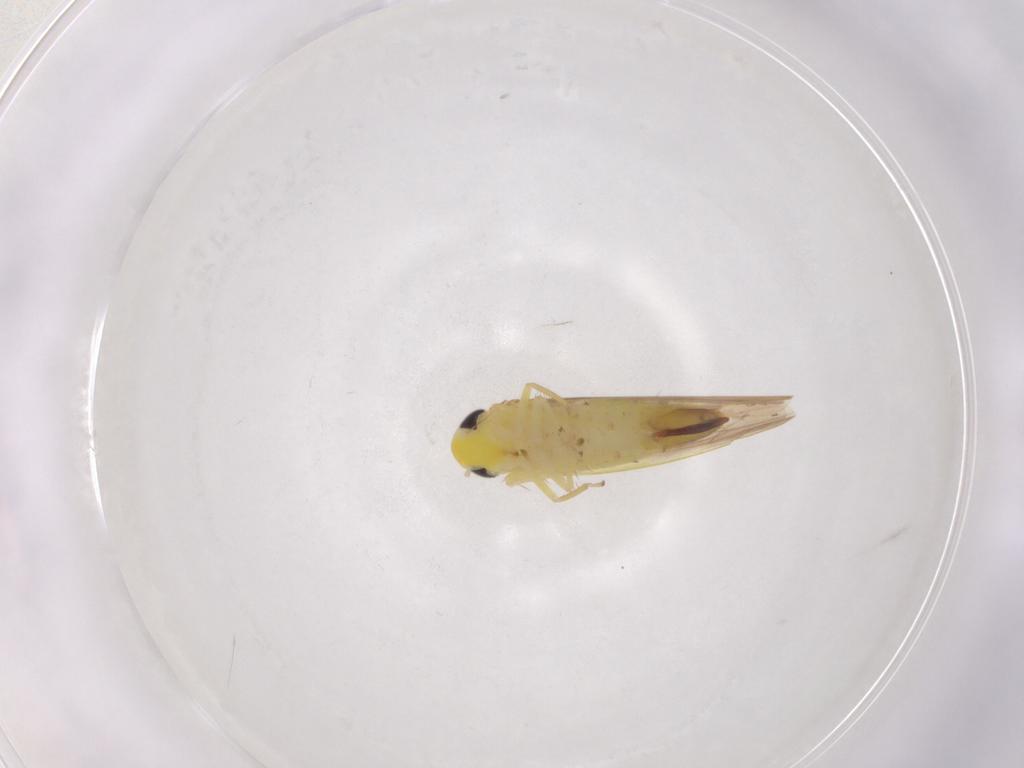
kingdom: Animalia
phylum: Arthropoda
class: Insecta
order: Hemiptera
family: Cicadellidae
